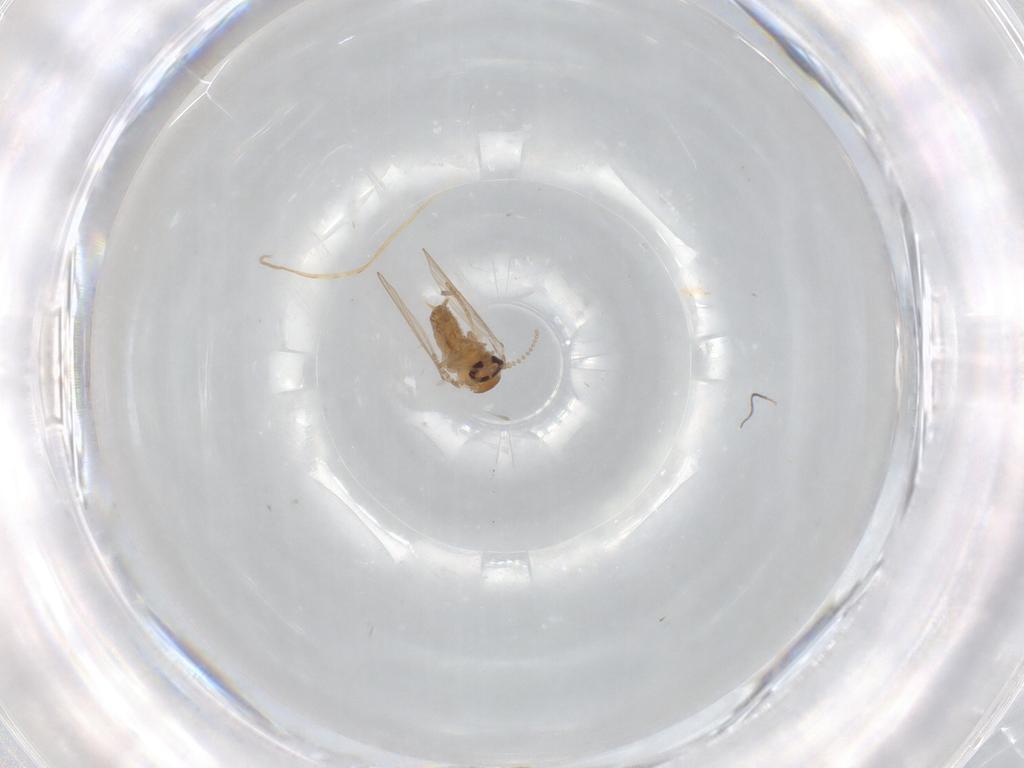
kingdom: Animalia
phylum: Arthropoda
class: Insecta
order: Diptera
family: Psychodidae
